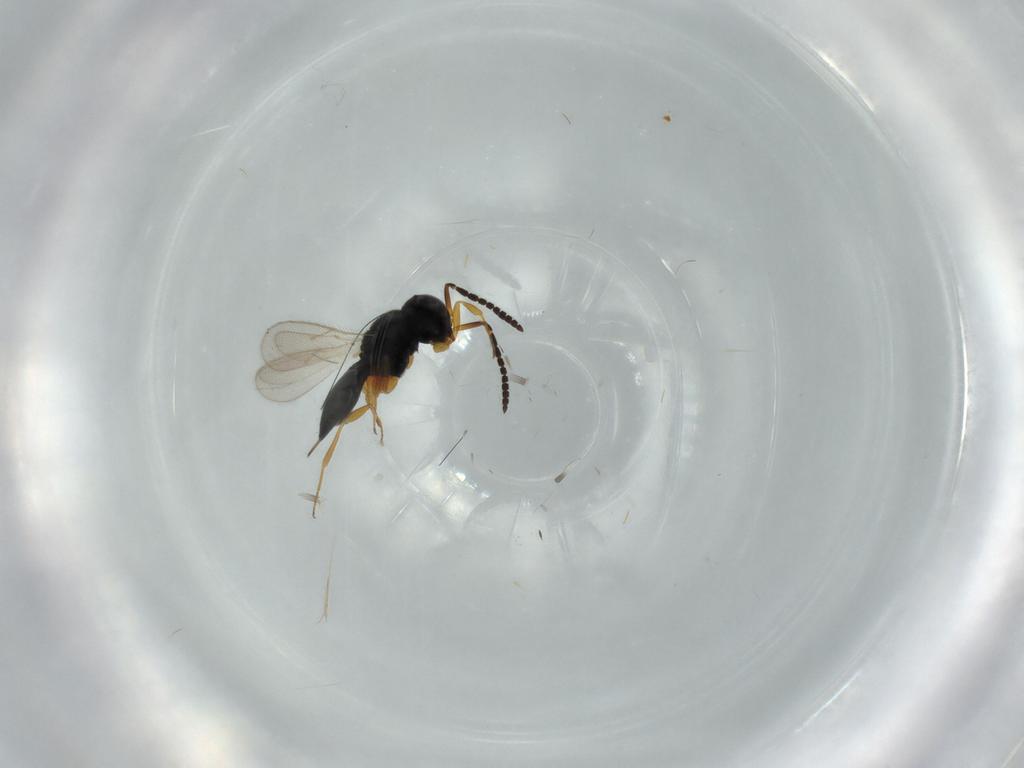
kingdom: Animalia
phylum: Arthropoda
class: Insecta
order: Hymenoptera
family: Scelionidae
